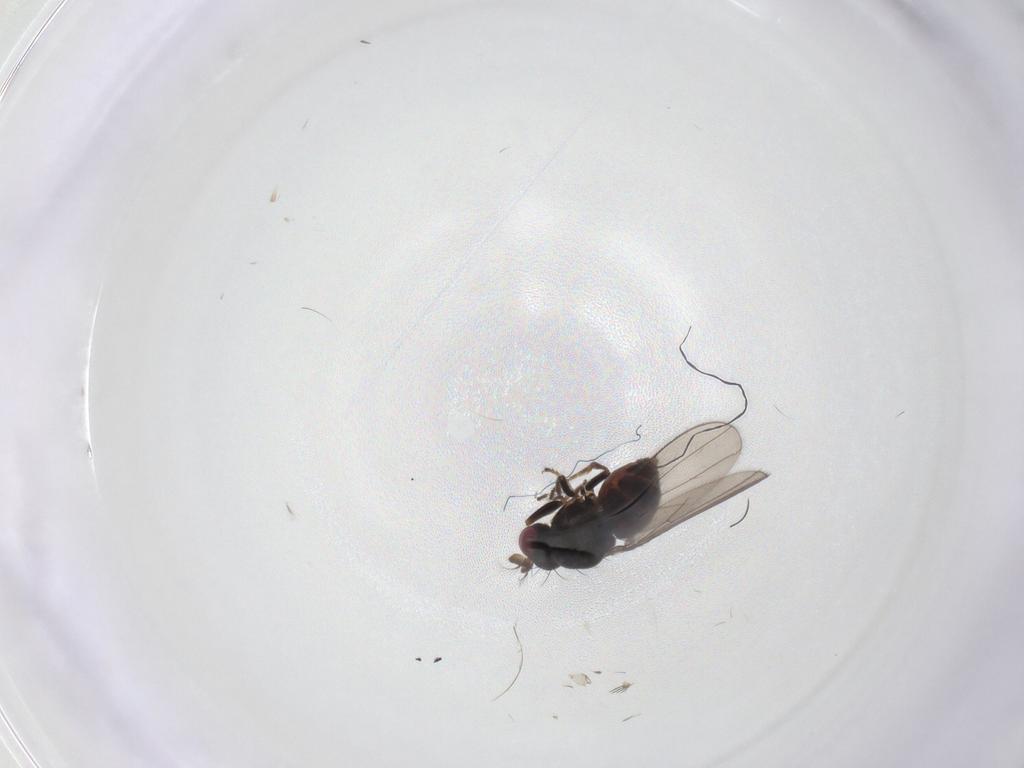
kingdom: Animalia
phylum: Arthropoda
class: Insecta
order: Diptera
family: Ephydridae
